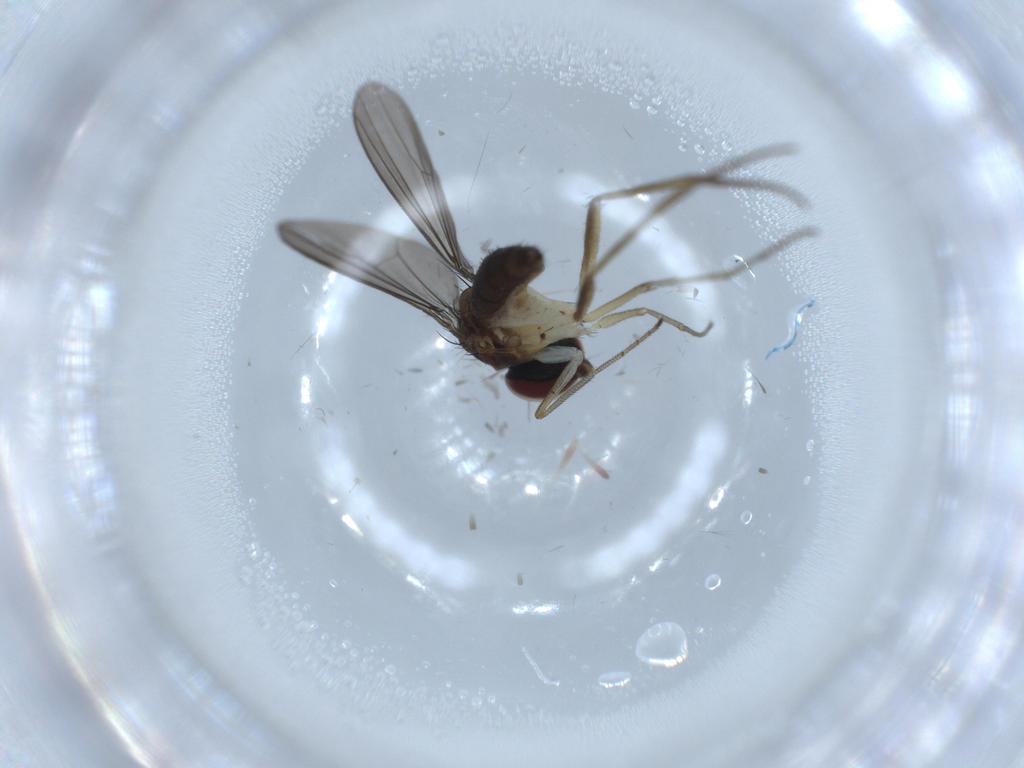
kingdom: Animalia
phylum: Arthropoda
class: Insecta
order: Diptera
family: Dolichopodidae
